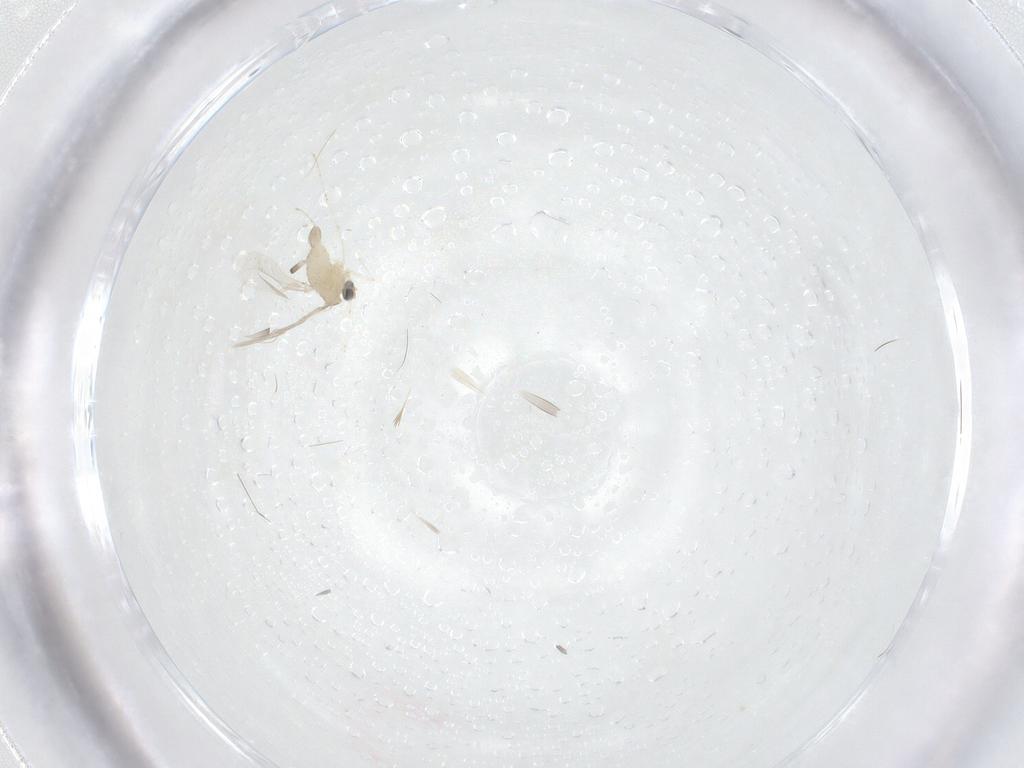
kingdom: Animalia
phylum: Arthropoda
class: Insecta
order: Diptera
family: Cecidomyiidae
